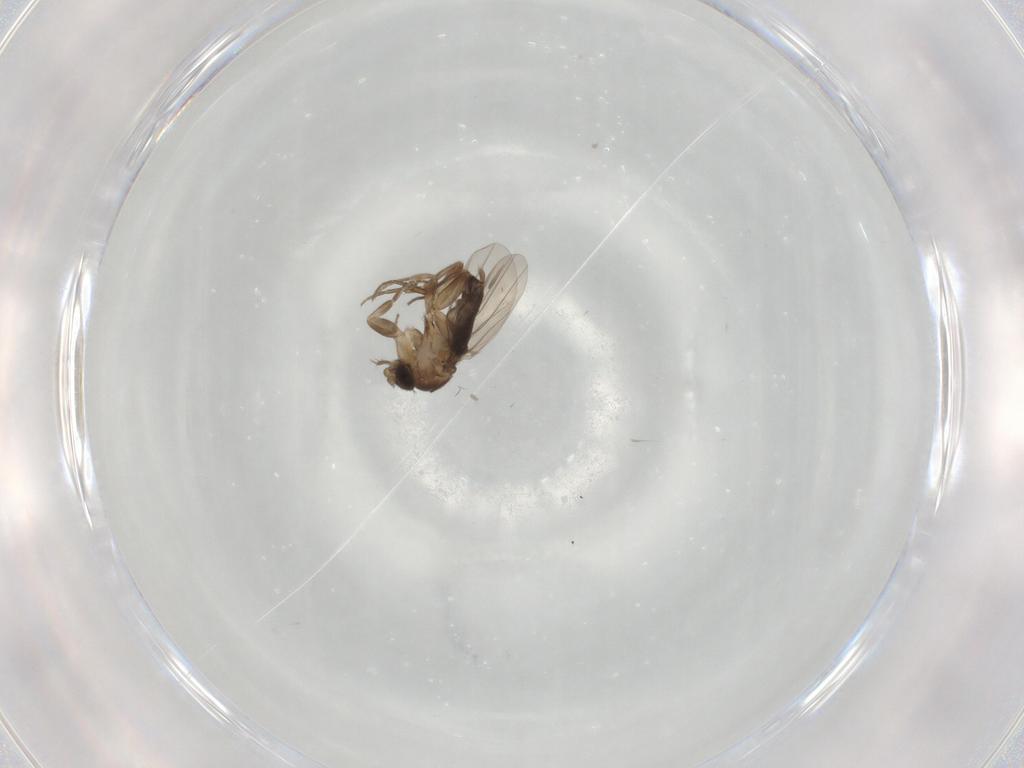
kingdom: Animalia
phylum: Arthropoda
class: Insecta
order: Diptera
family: Phoridae
